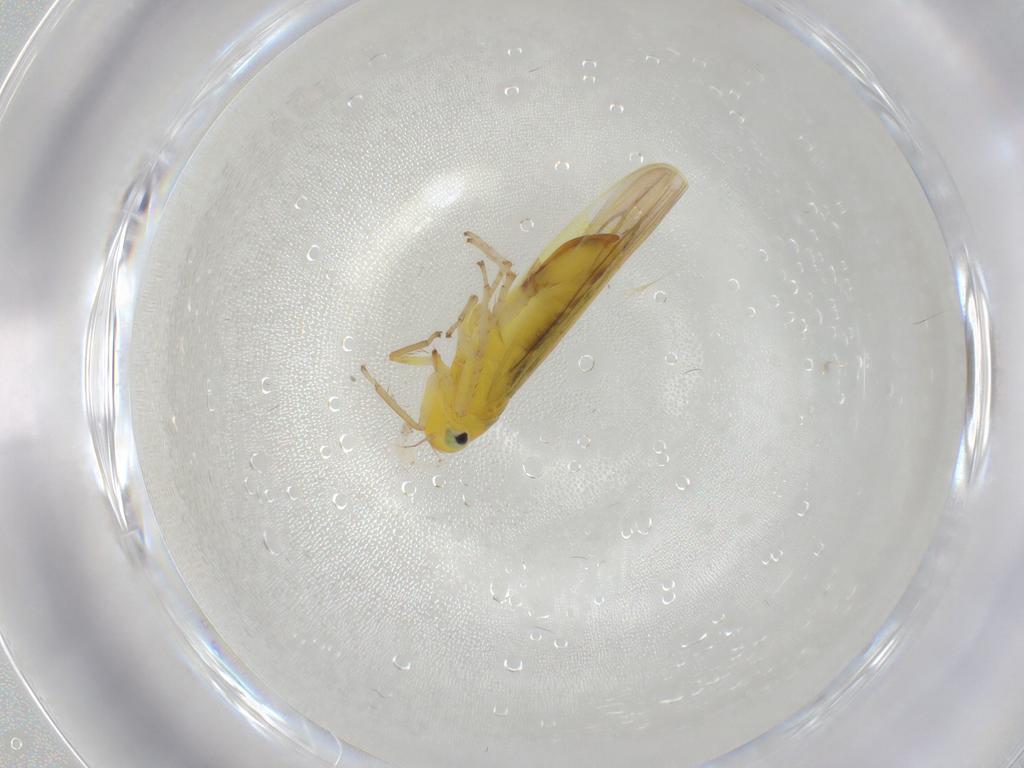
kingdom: Animalia
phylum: Arthropoda
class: Insecta
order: Hemiptera
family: Cicadellidae
